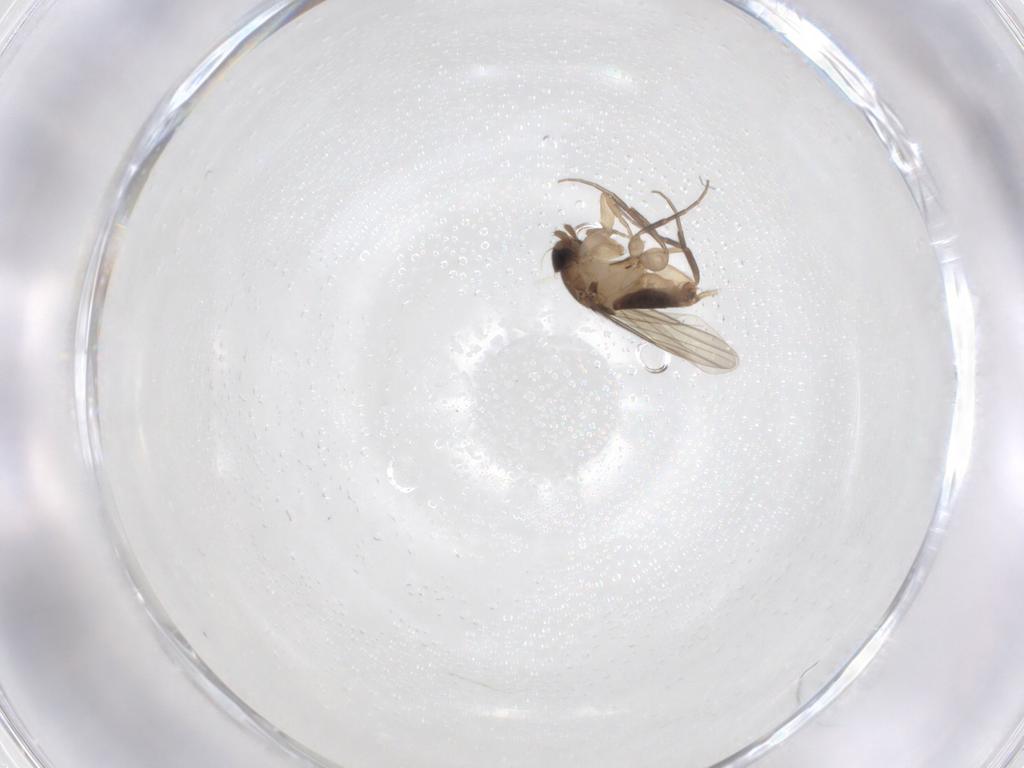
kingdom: Animalia
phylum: Arthropoda
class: Insecta
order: Diptera
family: Phoridae
